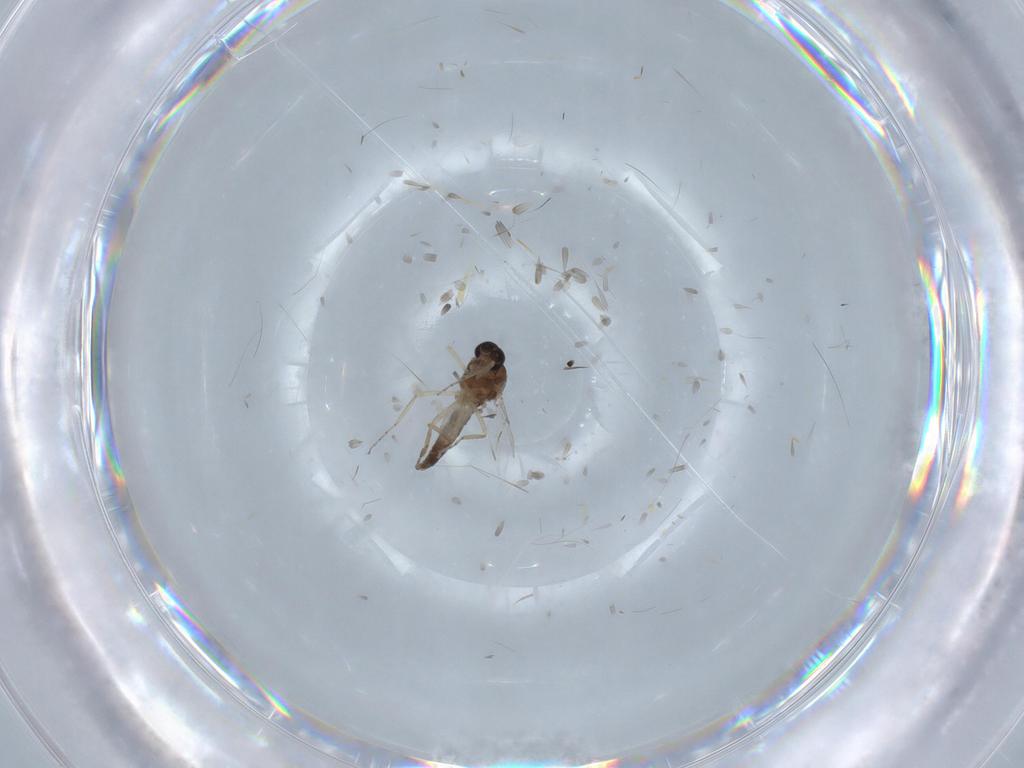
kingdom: Animalia
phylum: Arthropoda
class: Insecta
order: Diptera
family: Ceratopogonidae
